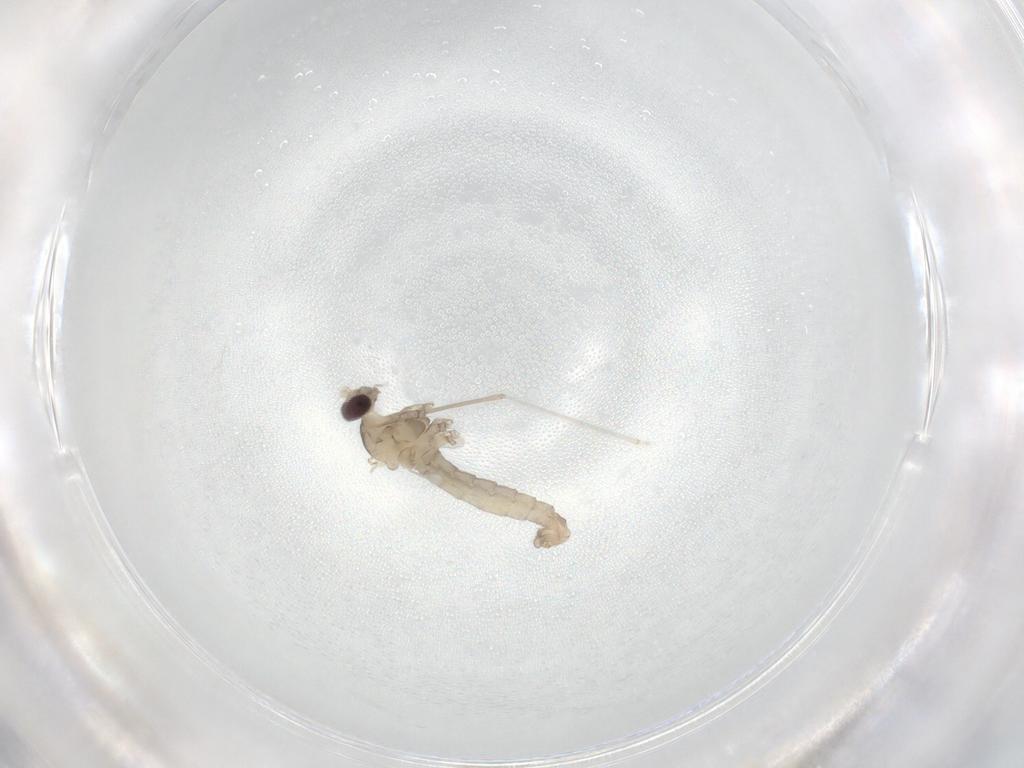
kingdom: Animalia
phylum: Arthropoda
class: Insecta
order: Diptera
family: Cecidomyiidae
